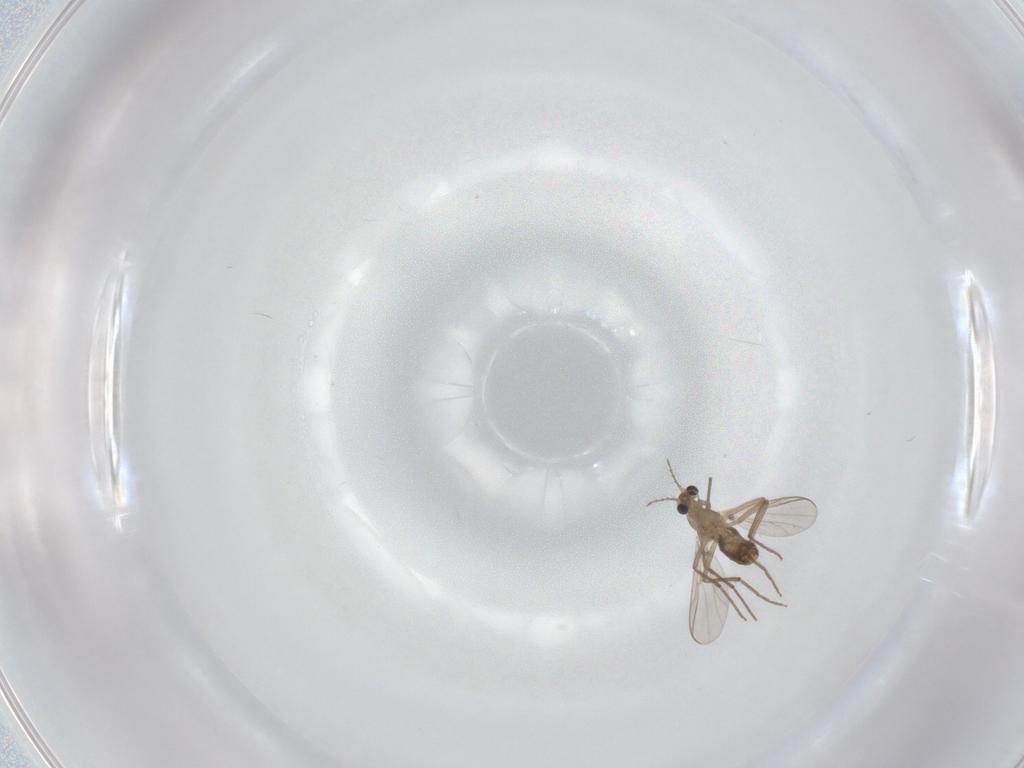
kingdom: Animalia
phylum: Arthropoda
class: Insecta
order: Diptera
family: Chironomidae
